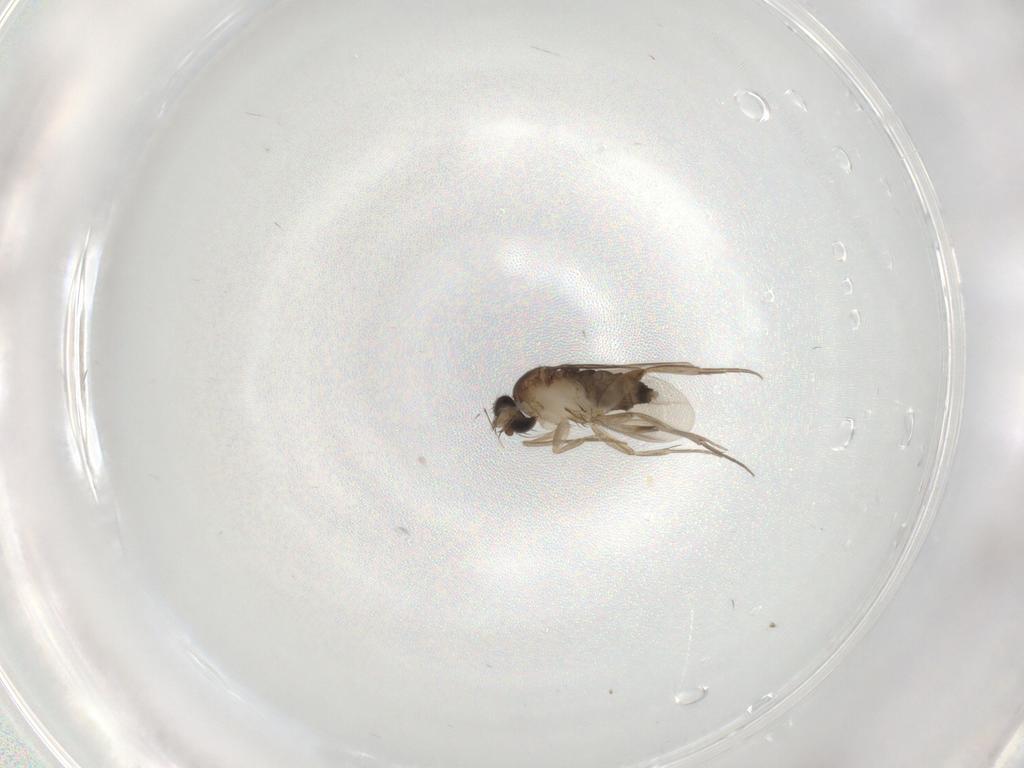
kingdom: Animalia
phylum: Arthropoda
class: Insecta
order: Diptera
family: Phoridae
